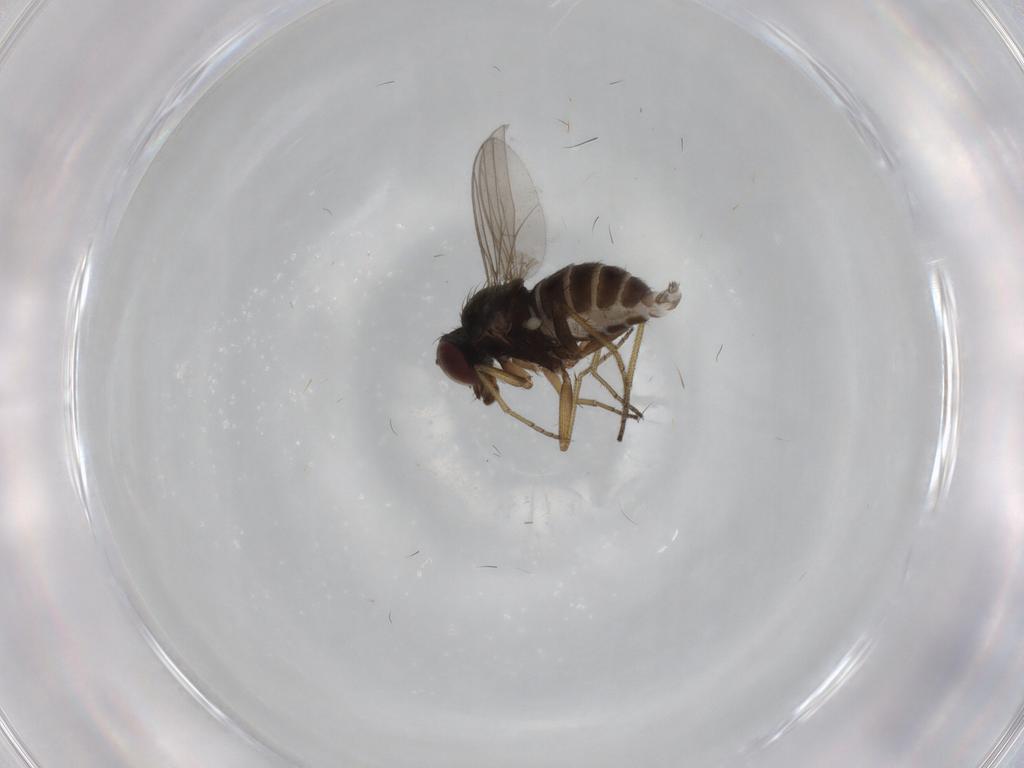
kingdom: Animalia
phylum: Arthropoda
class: Insecta
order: Diptera
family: Dolichopodidae
